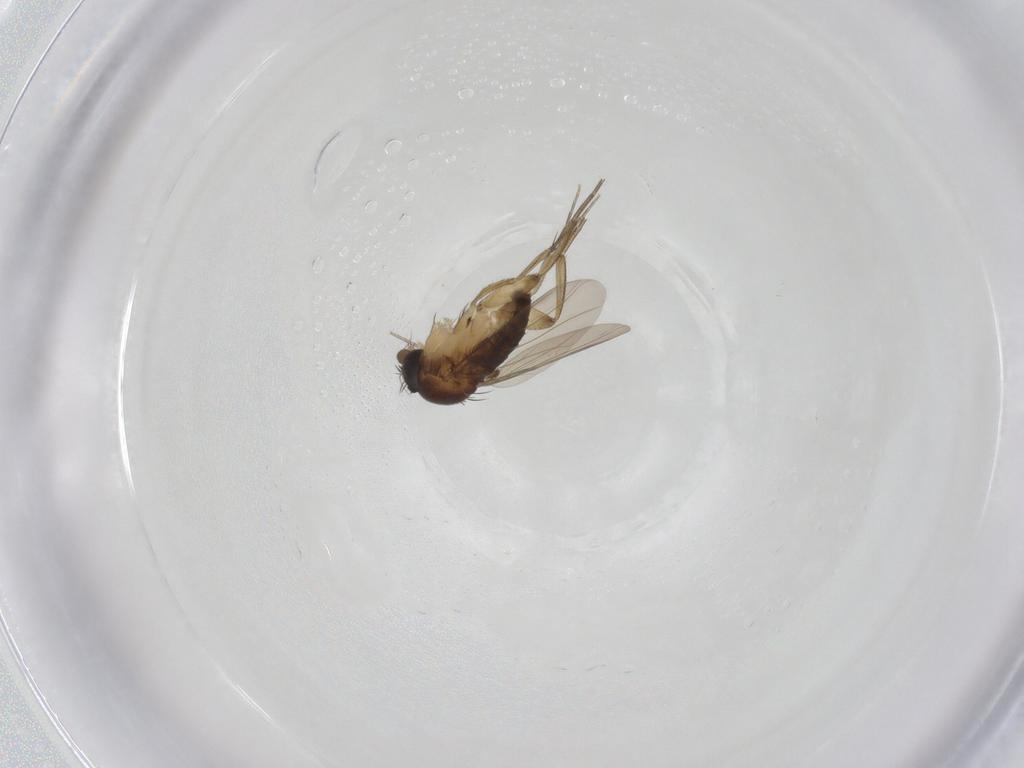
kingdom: Animalia
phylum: Arthropoda
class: Insecta
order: Diptera
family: Phoridae
